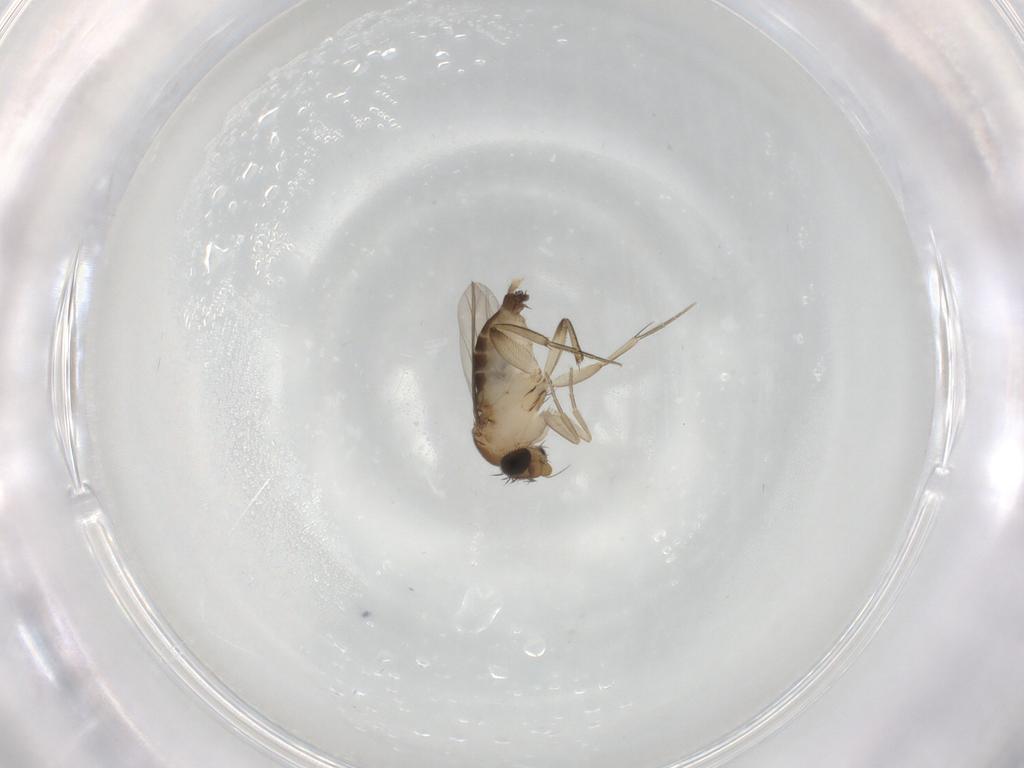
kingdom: Animalia
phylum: Arthropoda
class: Insecta
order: Diptera
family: Phoridae
